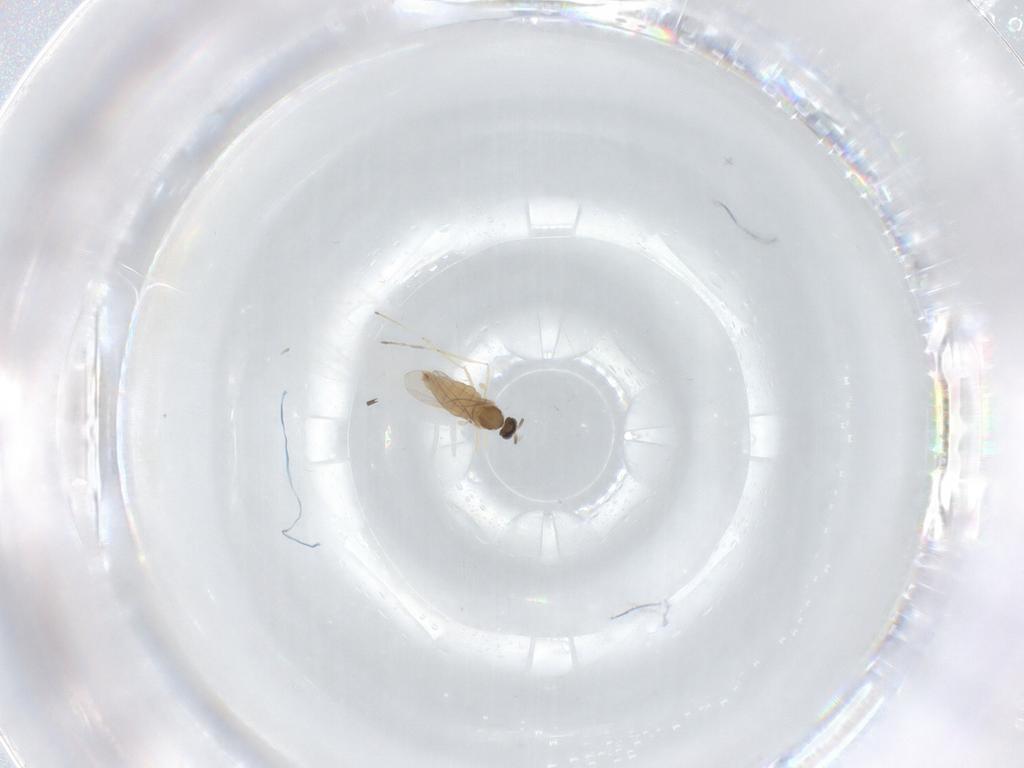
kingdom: Animalia
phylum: Arthropoda
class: Insecta
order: Diptera
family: Cecidomyiidae
